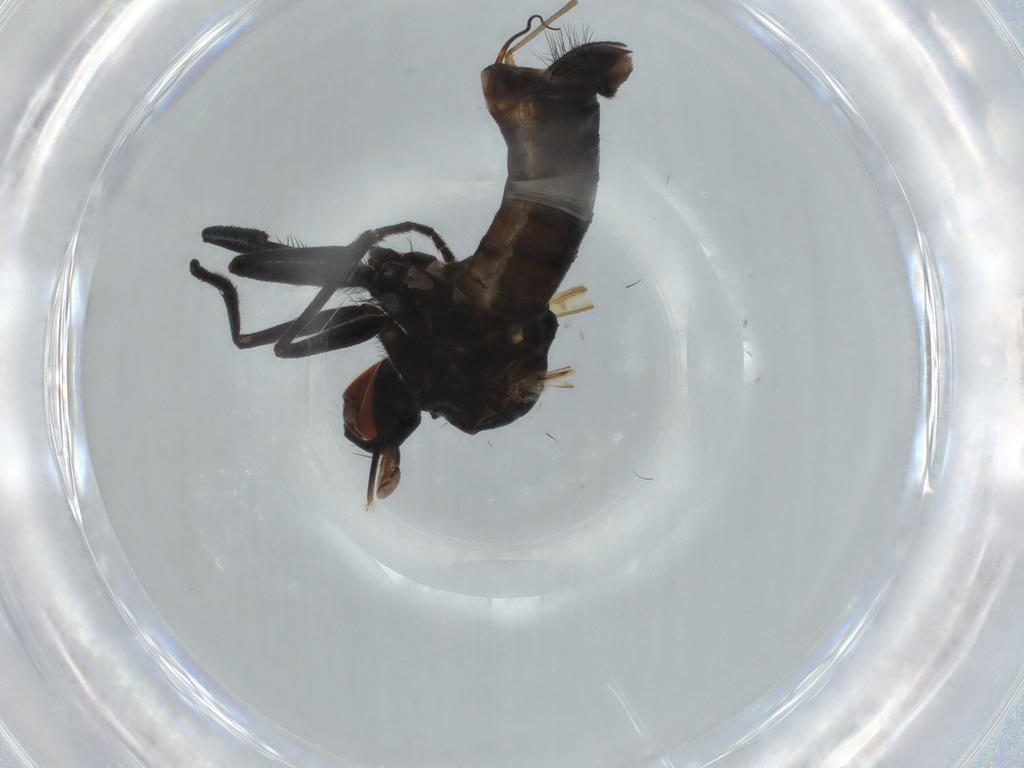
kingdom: Animalia
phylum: Arthropoda
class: Insecta
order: Diptera
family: Empididae
